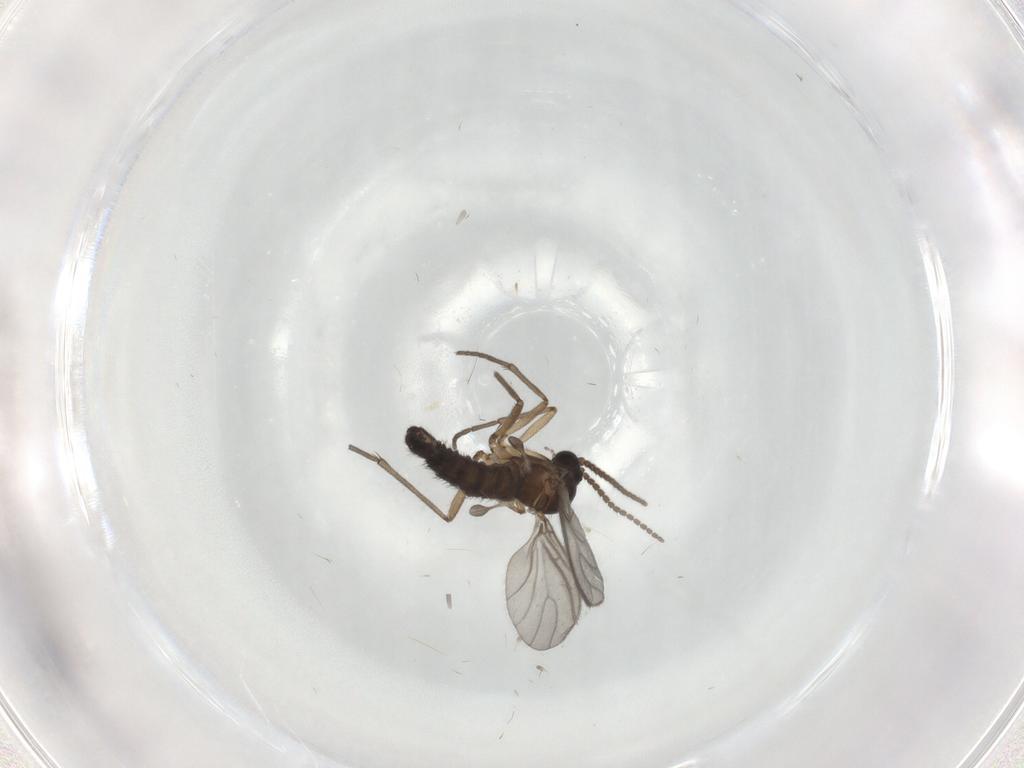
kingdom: Animalia
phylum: Arthropoda
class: Insecta
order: Diptera
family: Sciaridae
